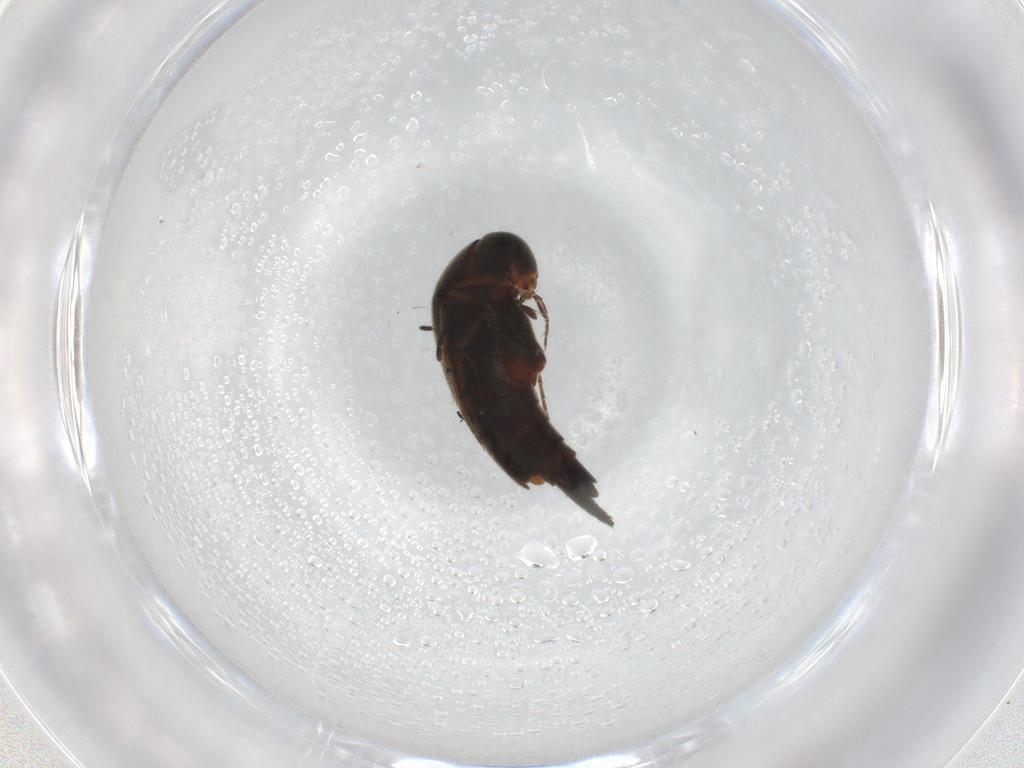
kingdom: Animalia
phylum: Arthropoda
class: Insecta
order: Coleoptera
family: Mordellidae
